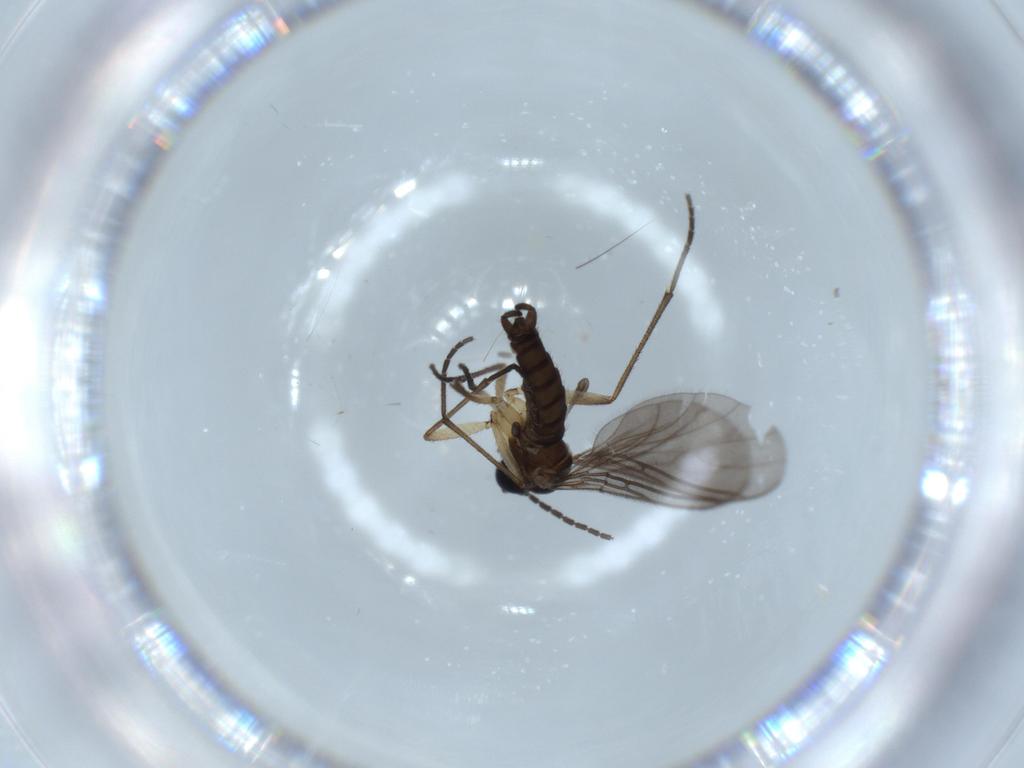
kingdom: Animalia
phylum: Arthropoda
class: Insecta
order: Diptera
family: Sciaridae
